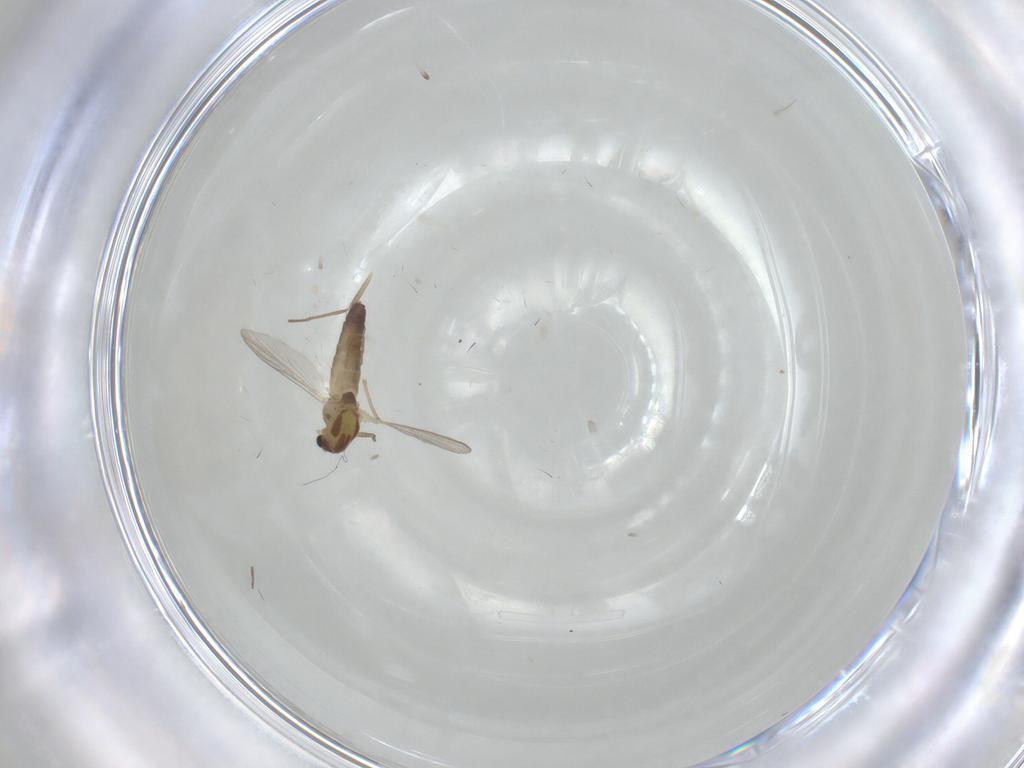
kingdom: Animalia
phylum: Arthropoda
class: Insecta
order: Diptera
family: Chironomidae
